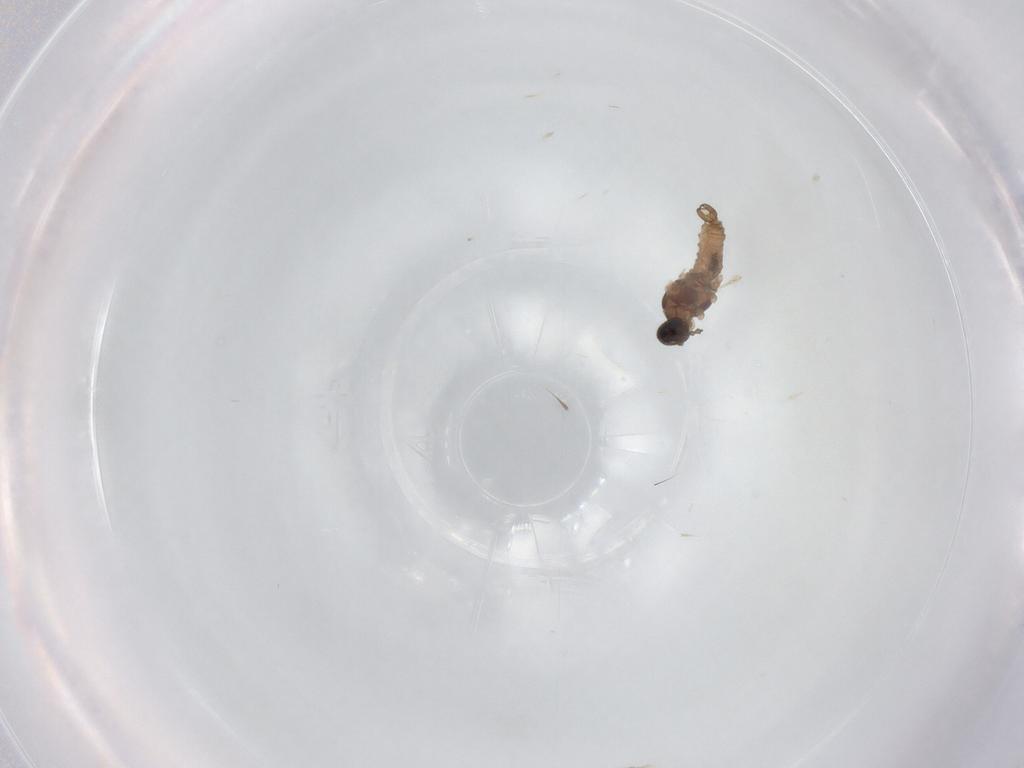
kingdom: Animalia
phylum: Arthropoda
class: Insecta
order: Diptera
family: Cecidomyiidae
